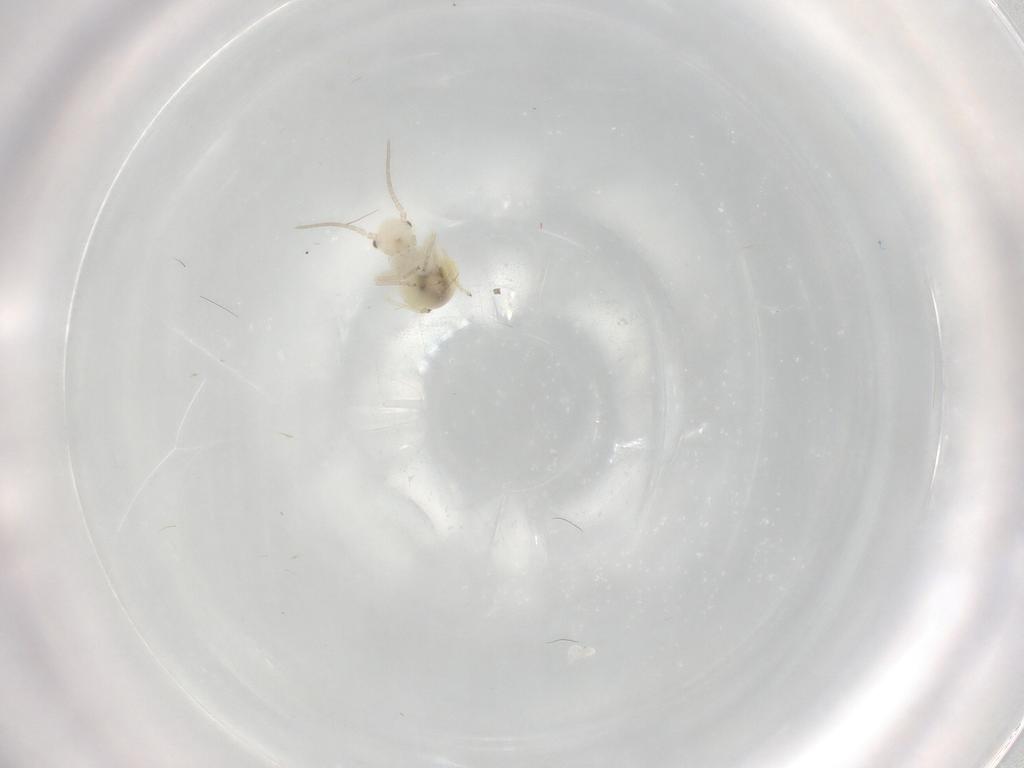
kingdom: Animalia
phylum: Arthropoda
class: Insecta
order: Psocodea
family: Caeciliusidae
